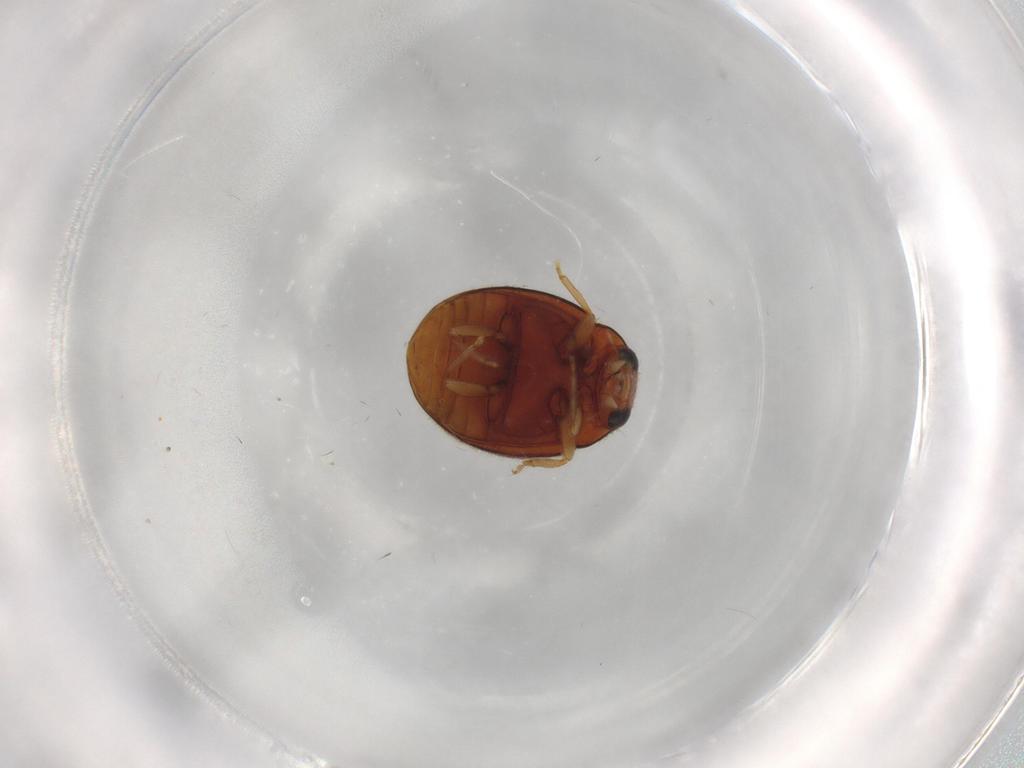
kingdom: Animalia
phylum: Arthropoda
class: Insecta
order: Coleoptera
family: Coccinellidae
